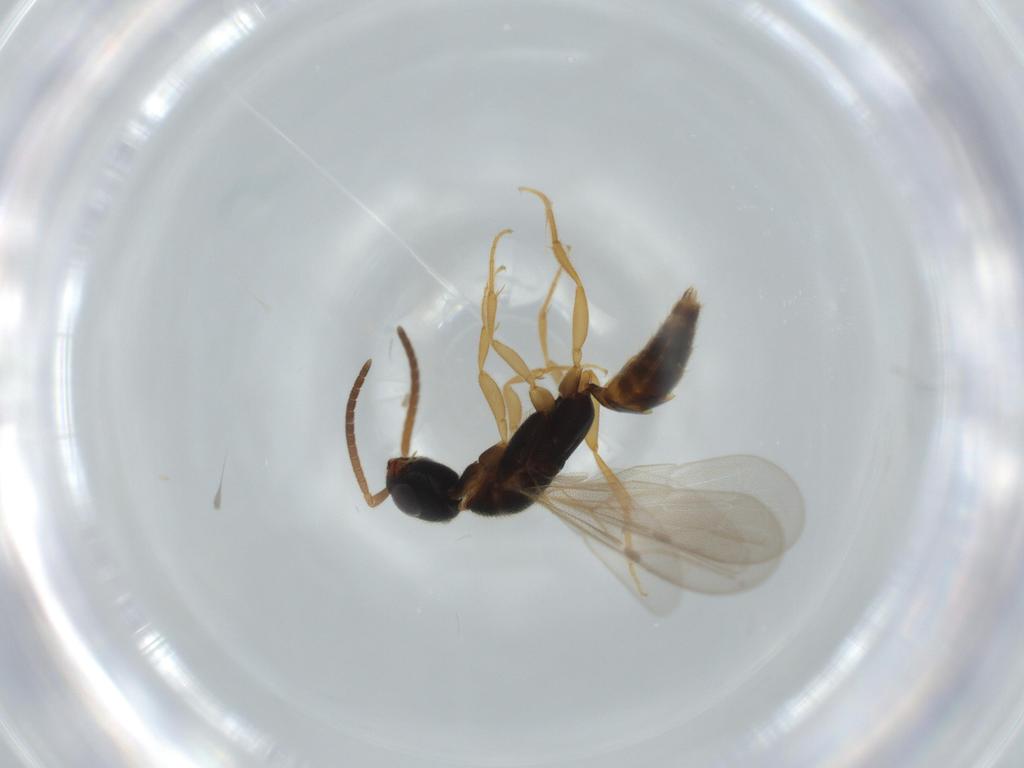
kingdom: Animalia
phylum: Arthropoda
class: Insecta
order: Hymenoptera
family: Bethylidae
